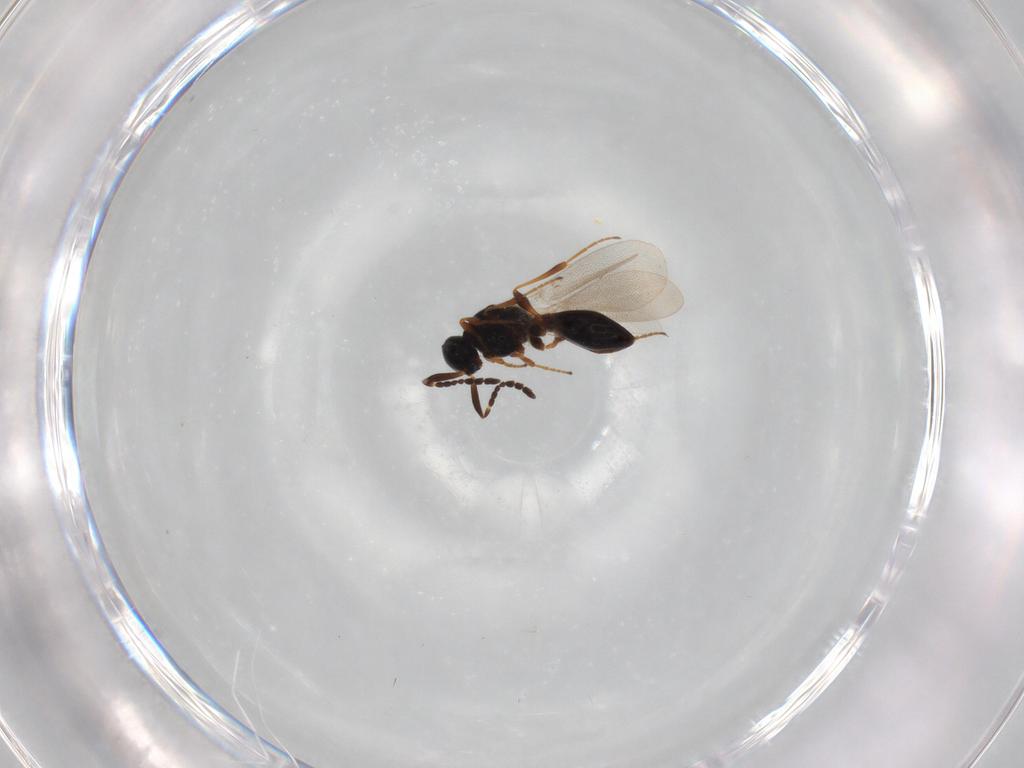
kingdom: Animalia
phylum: Arthropoda
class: Insecta
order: Hymenoptera
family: Platygastridae
